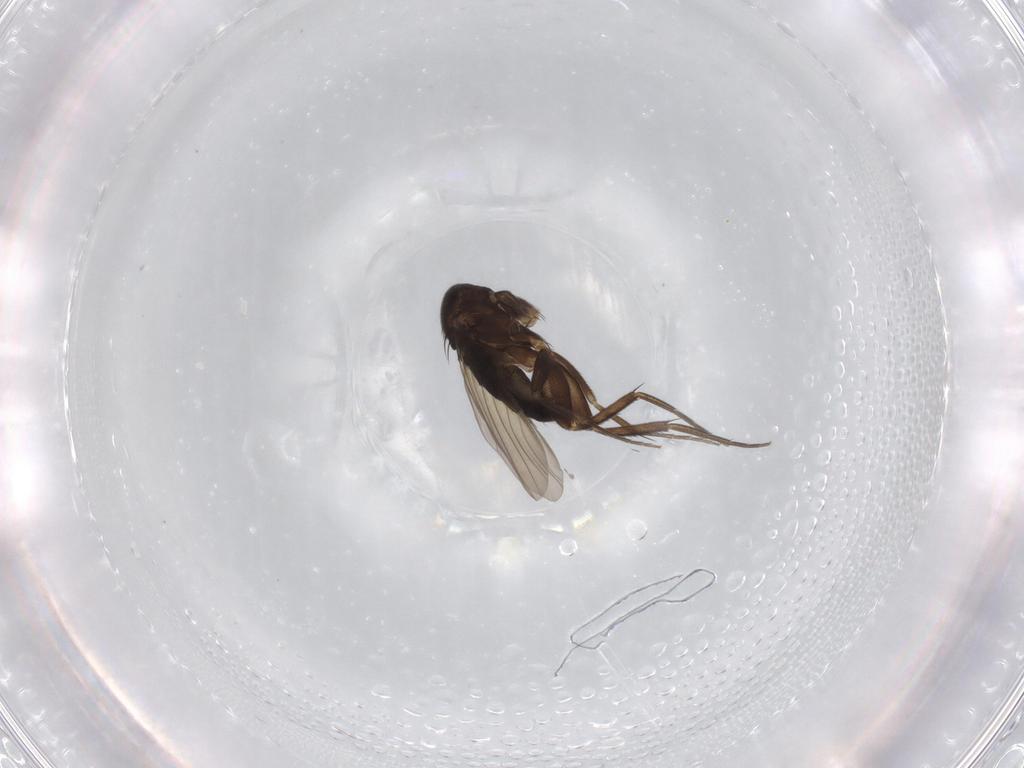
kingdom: Animalia
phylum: Arthropoda
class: Insecta
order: Diptera
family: Phoridae
